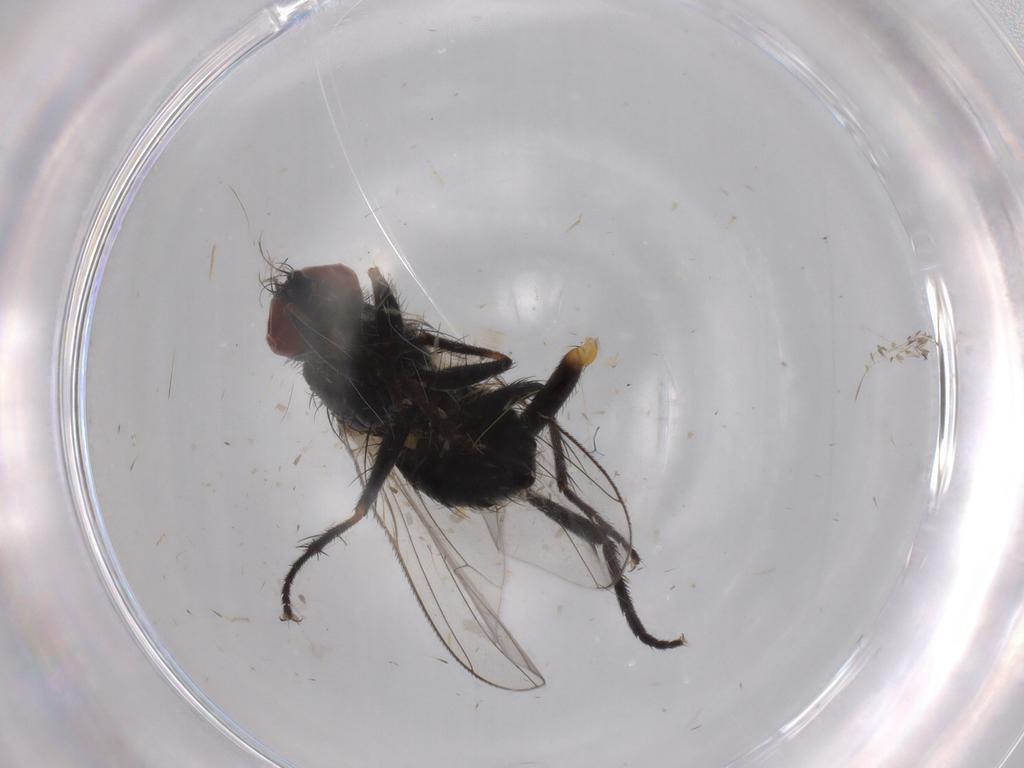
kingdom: Animalia
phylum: Arthropoda
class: Insecta
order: Diptera
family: Muscidae
